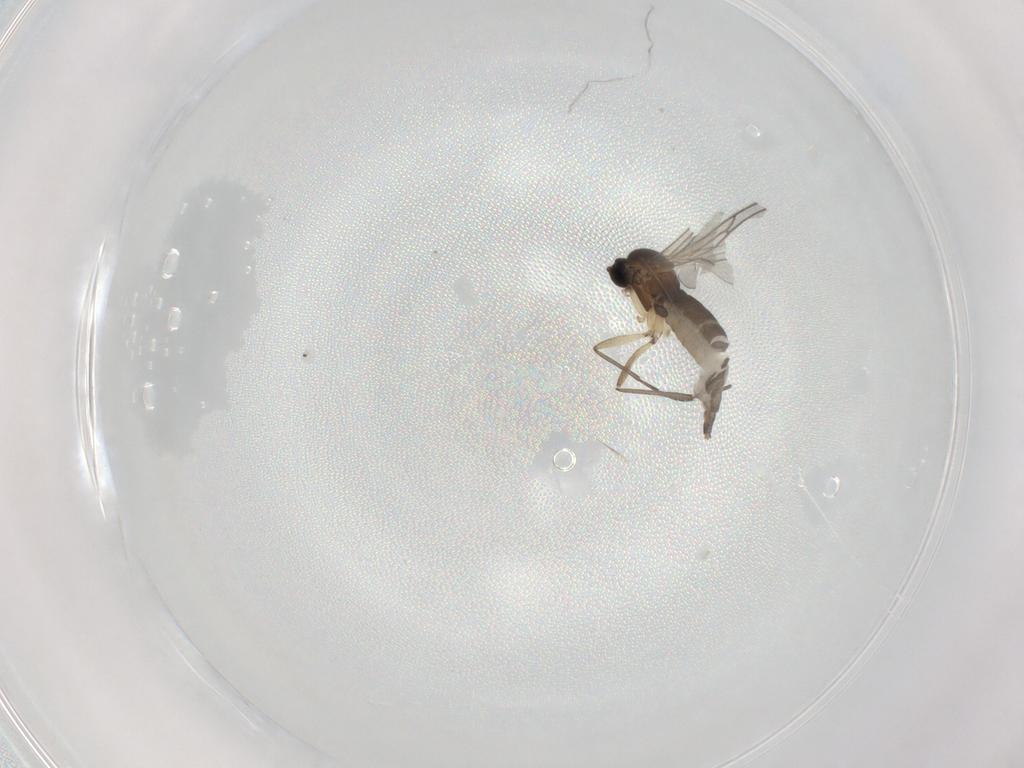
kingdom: Animalia
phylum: Arthropoda
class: Insecta
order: Diptera
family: Sciaridae
